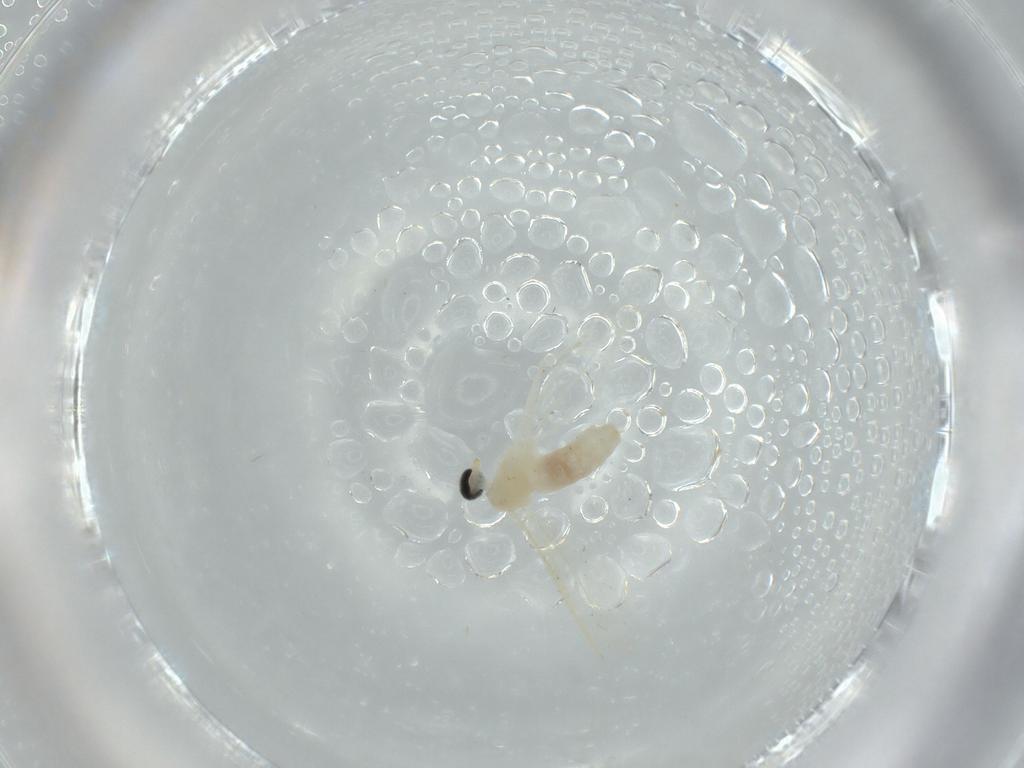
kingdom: Animalia
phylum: Arthropoda
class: Insecta
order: Diptera
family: Cecidomyiidae
